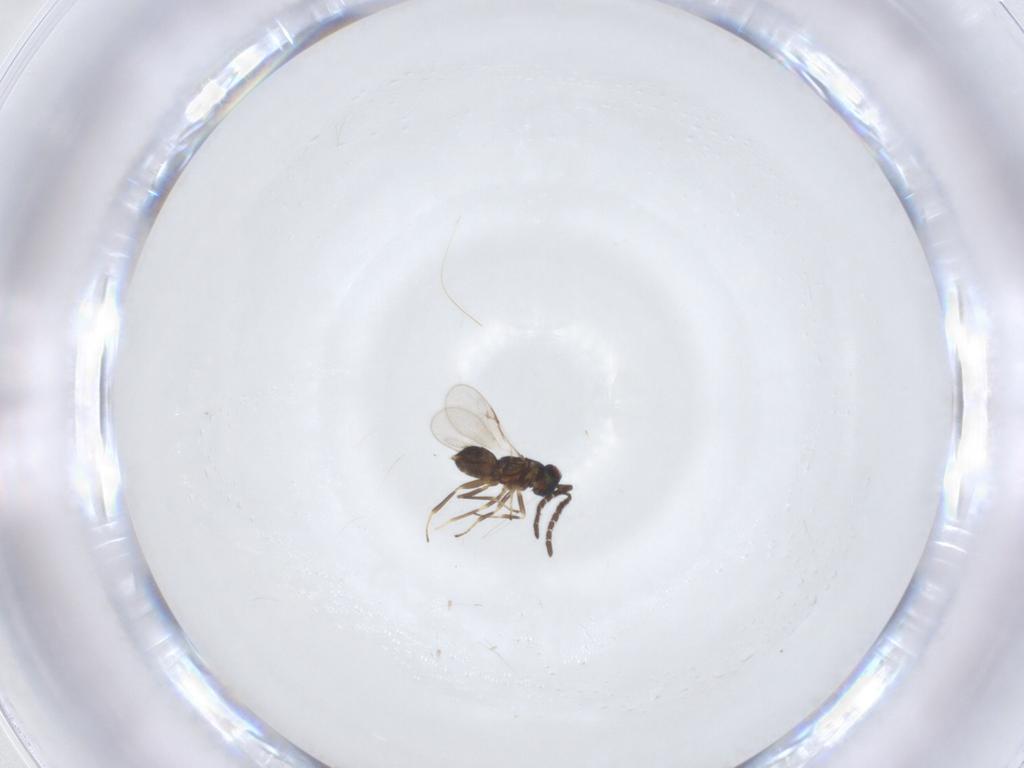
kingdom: Animalia
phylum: Arthropoda
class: Insecta
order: Hymenoptera
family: Encyrtidae
